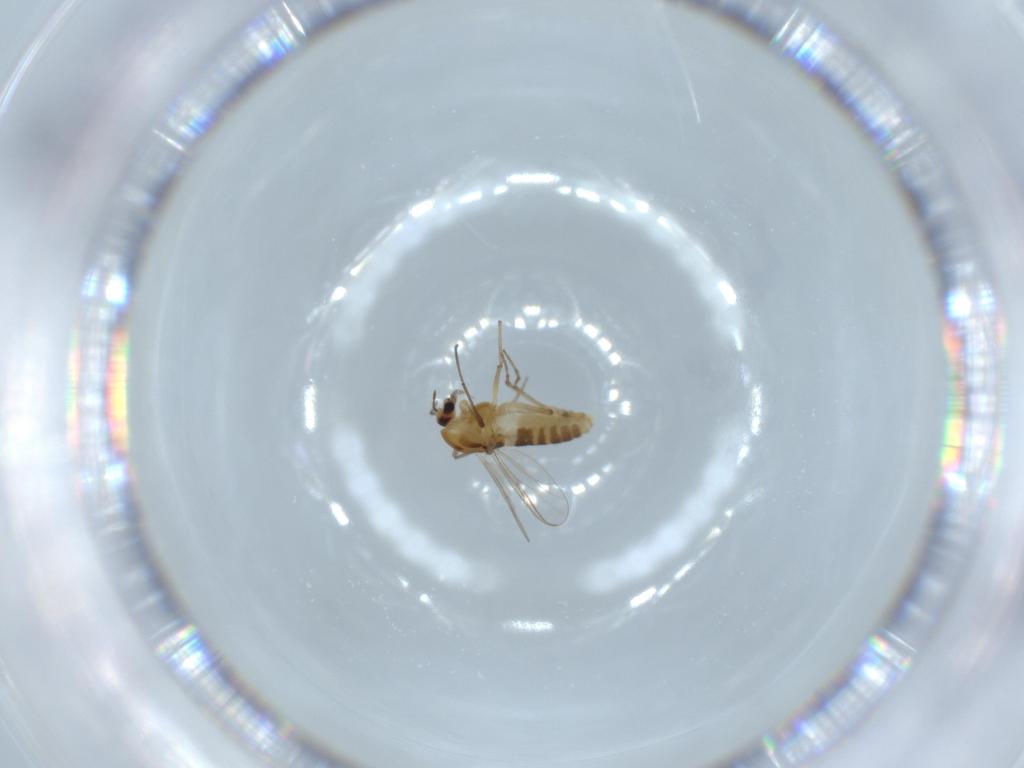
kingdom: Animalia
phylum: Arthropoda
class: Insecta
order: Diptera
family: Chironomidae
